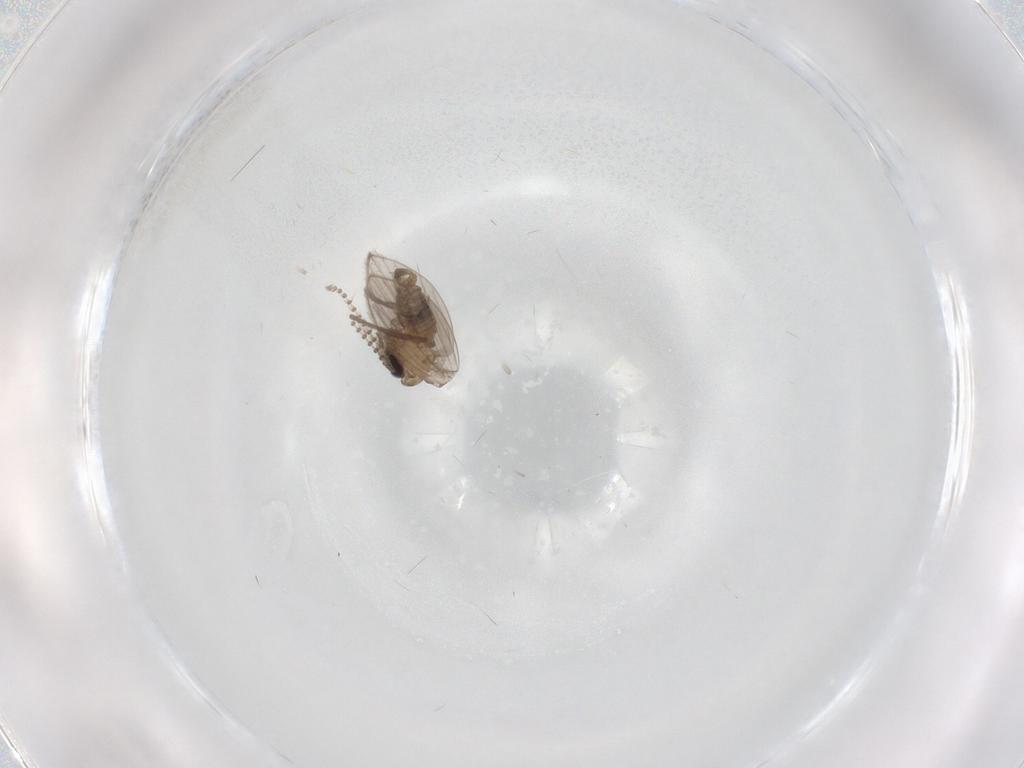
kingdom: Animalia
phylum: Arthropoda
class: Insecta
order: Diptera
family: Psychodidae
